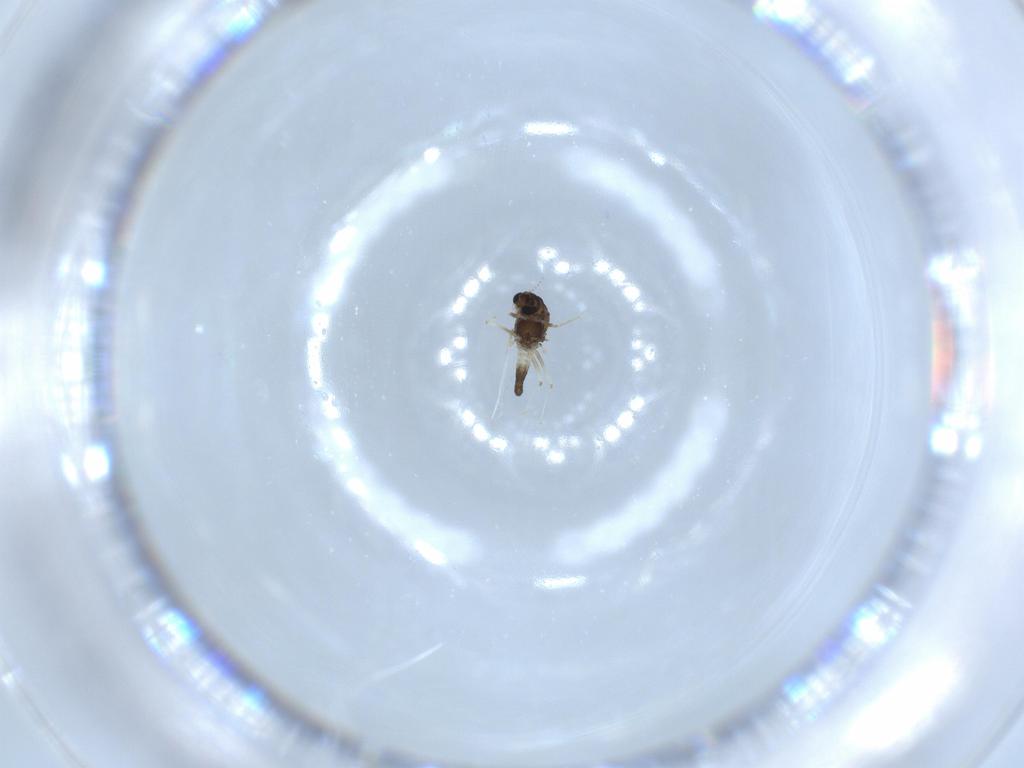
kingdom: Animalia
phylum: Arthropoda
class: Insecta
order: Diptera
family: Chironomidae
